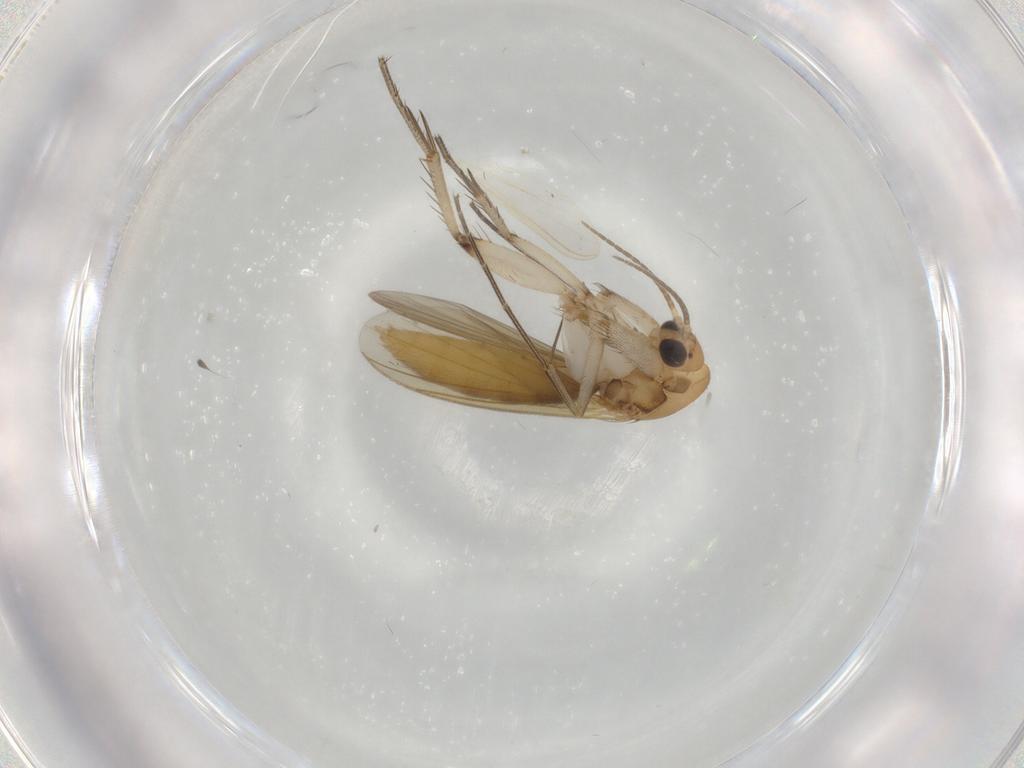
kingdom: Animalia
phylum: Arthropoda
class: Insecta
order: Diptera
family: Mycetophilidae
